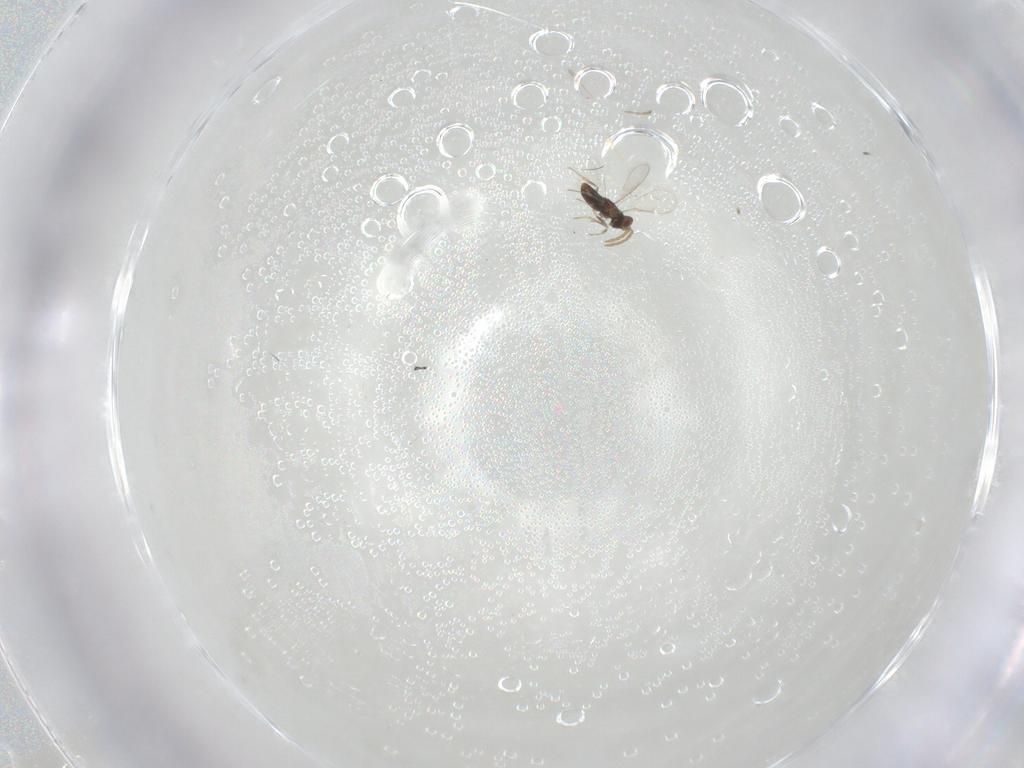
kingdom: Animalia
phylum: Arthropoda
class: Insecta
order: Hymenoptera
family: Aphelinidae
